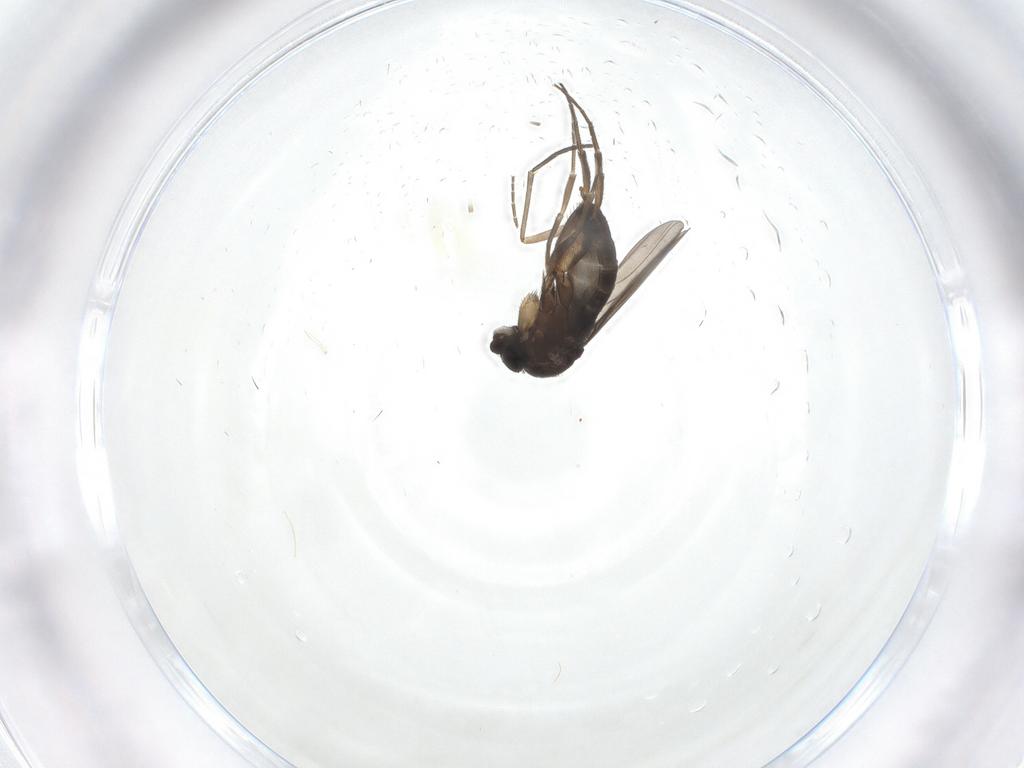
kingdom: Animalia
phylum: Arthropoda
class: Insecta
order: Diptera
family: Phoridae
